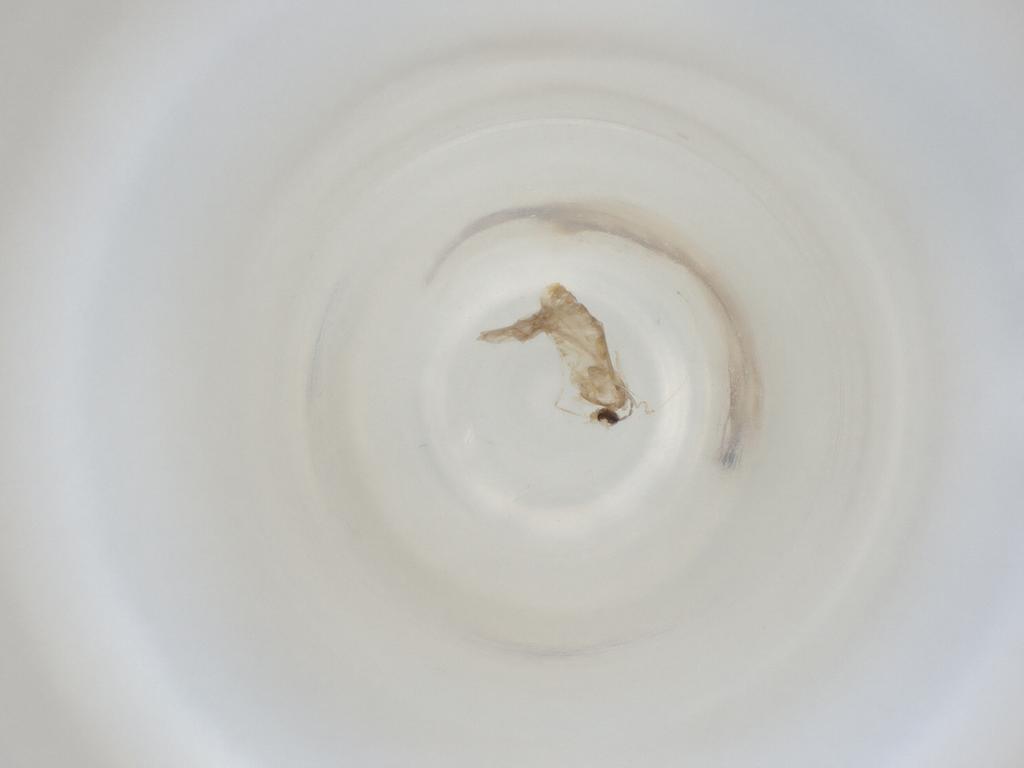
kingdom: Animalia
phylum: Arthropoda
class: Insecta
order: Diptera
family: Cecidomyiidae
